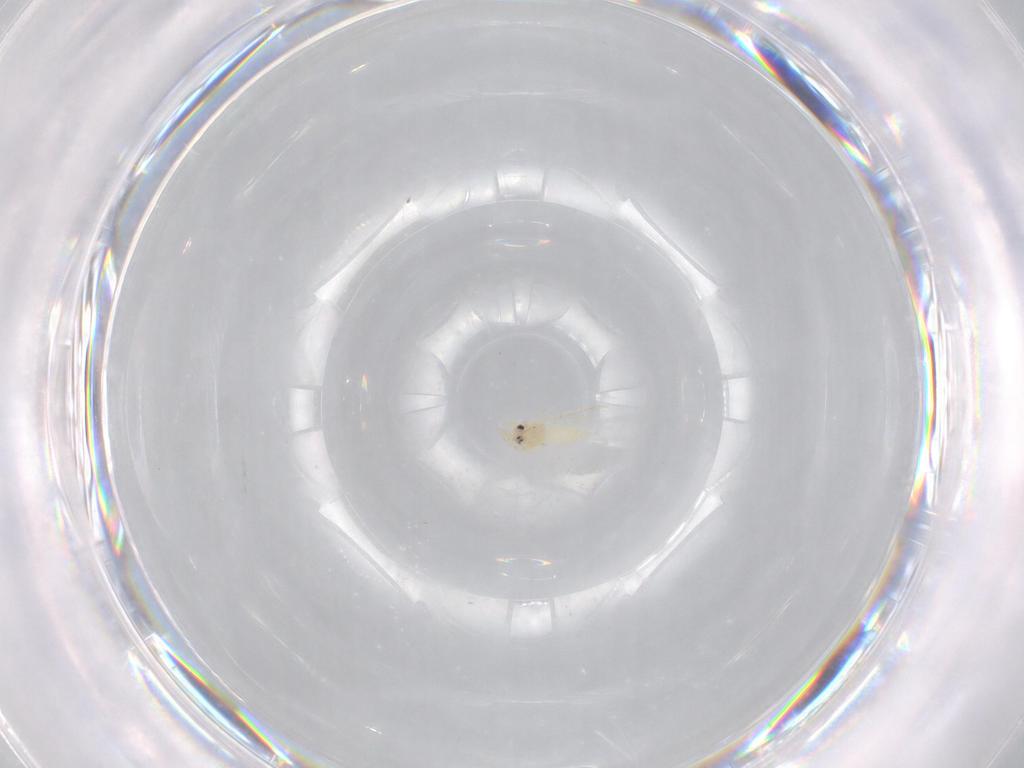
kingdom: Animalia
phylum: Arthropoda
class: Insecta
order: Hemiptera
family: Aleyrodidae
